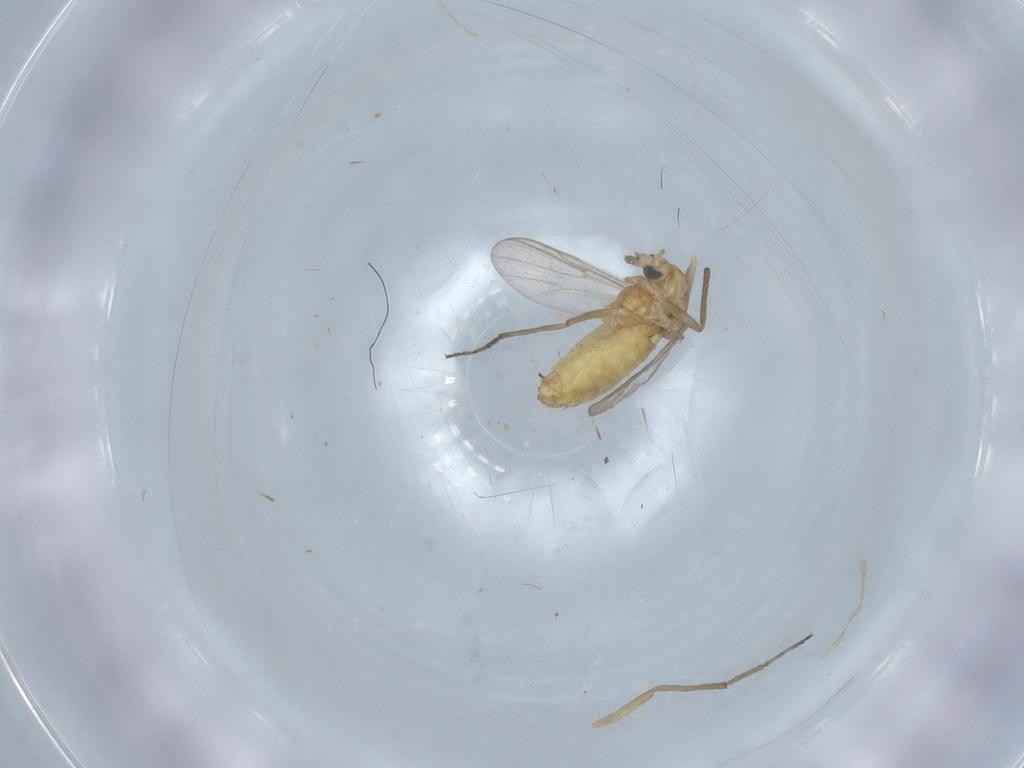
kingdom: Animalia
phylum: Arthropoda
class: Insecta
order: Diptera
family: Chironomidae
